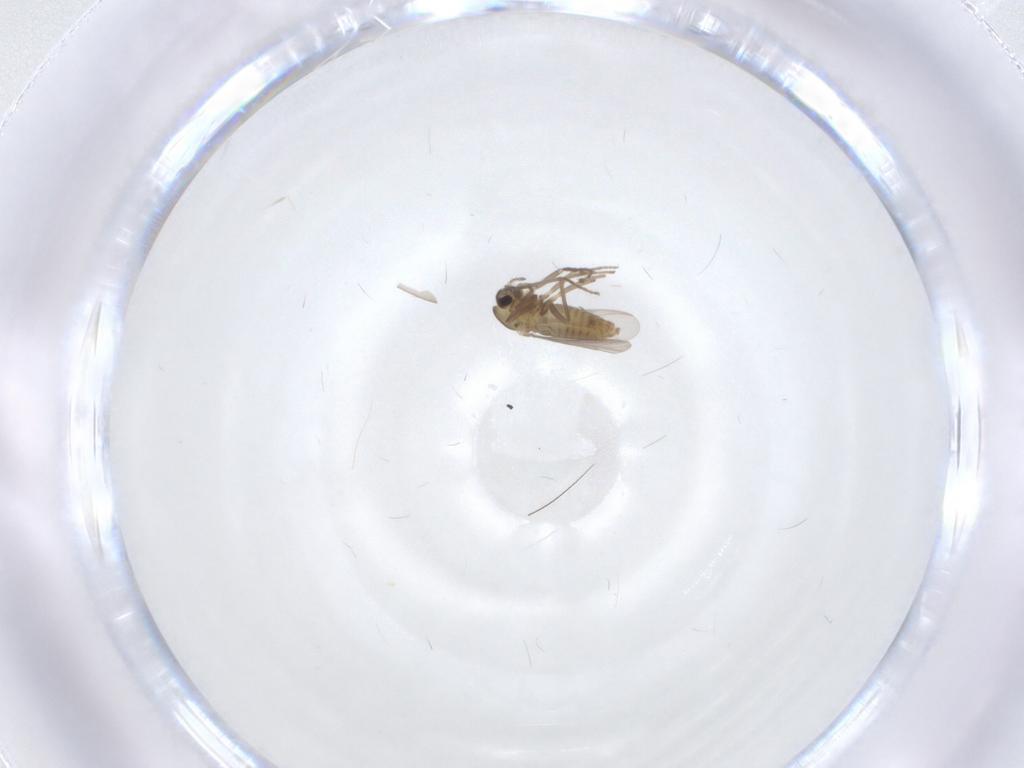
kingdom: Animalia
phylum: Arthropoda
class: Insecta
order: Diptera
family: Chironomidae
